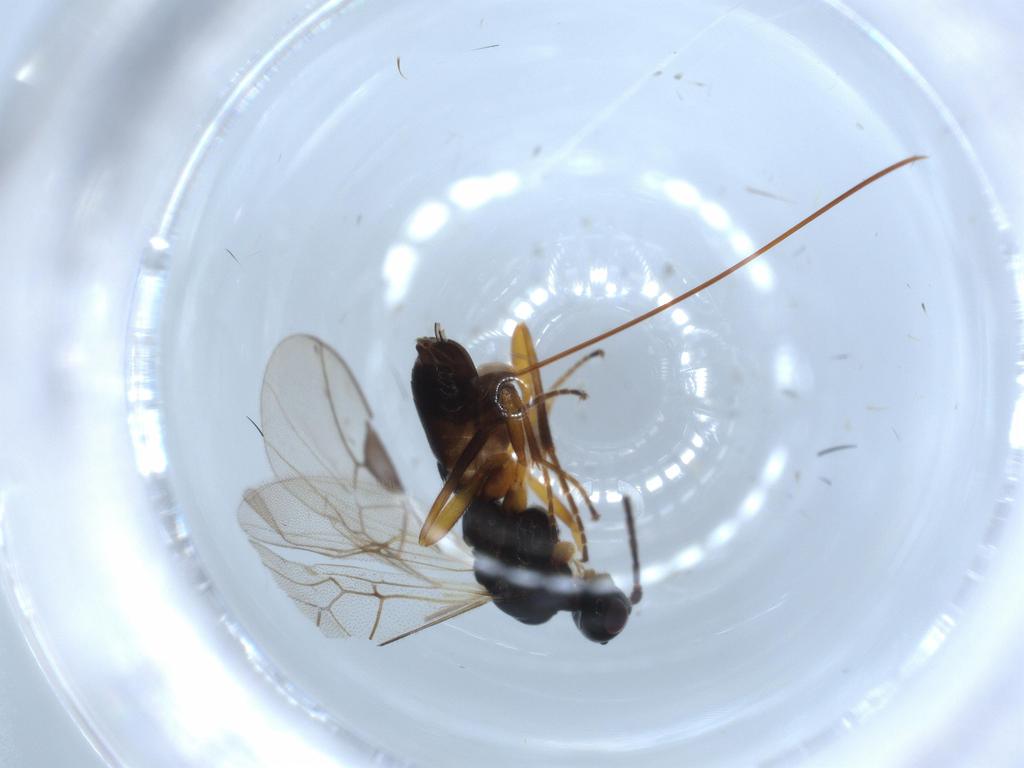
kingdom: Animalia
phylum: Arthropoda
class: Insecta
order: Hymenoptera
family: Braconidae
